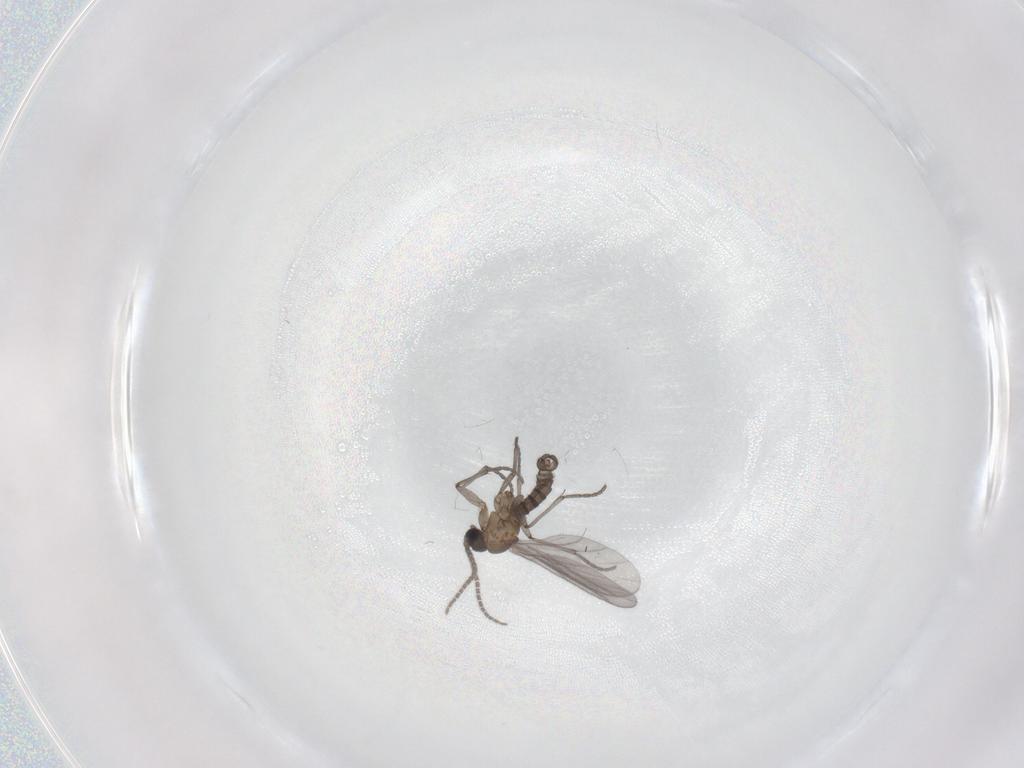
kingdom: Animalia
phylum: Arthropoda
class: Insecta
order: Diptera
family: Sciaridae
